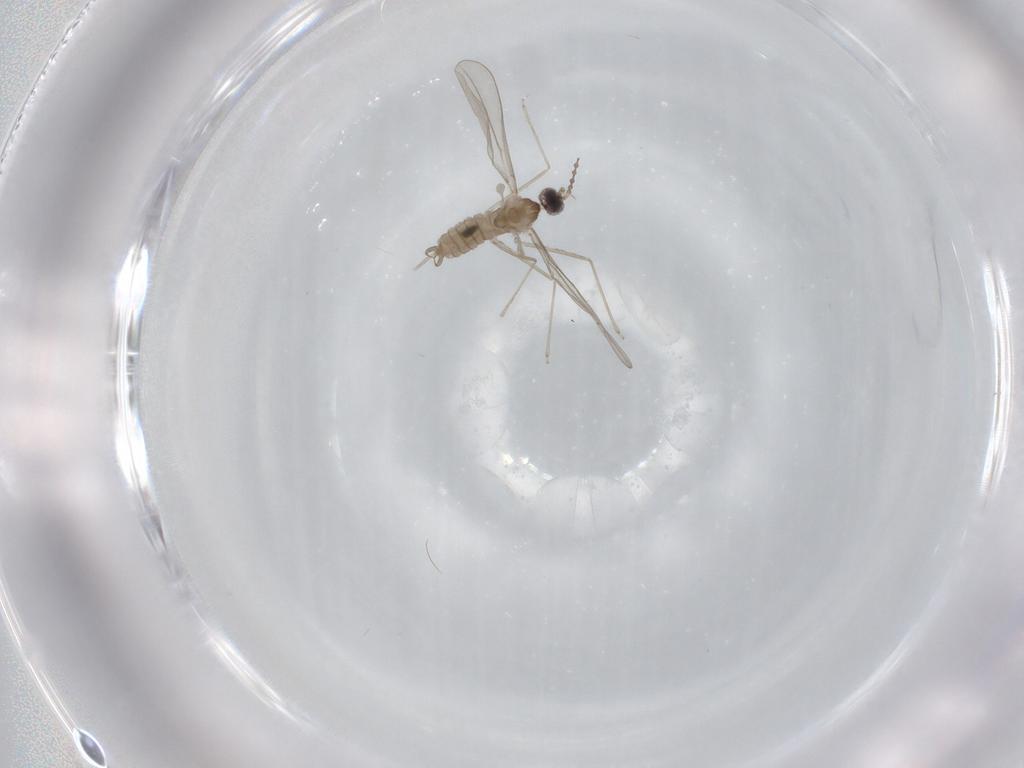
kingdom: Animalia
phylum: Arthropoda
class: Insecta
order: Diptera
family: Cecidomyiidae
